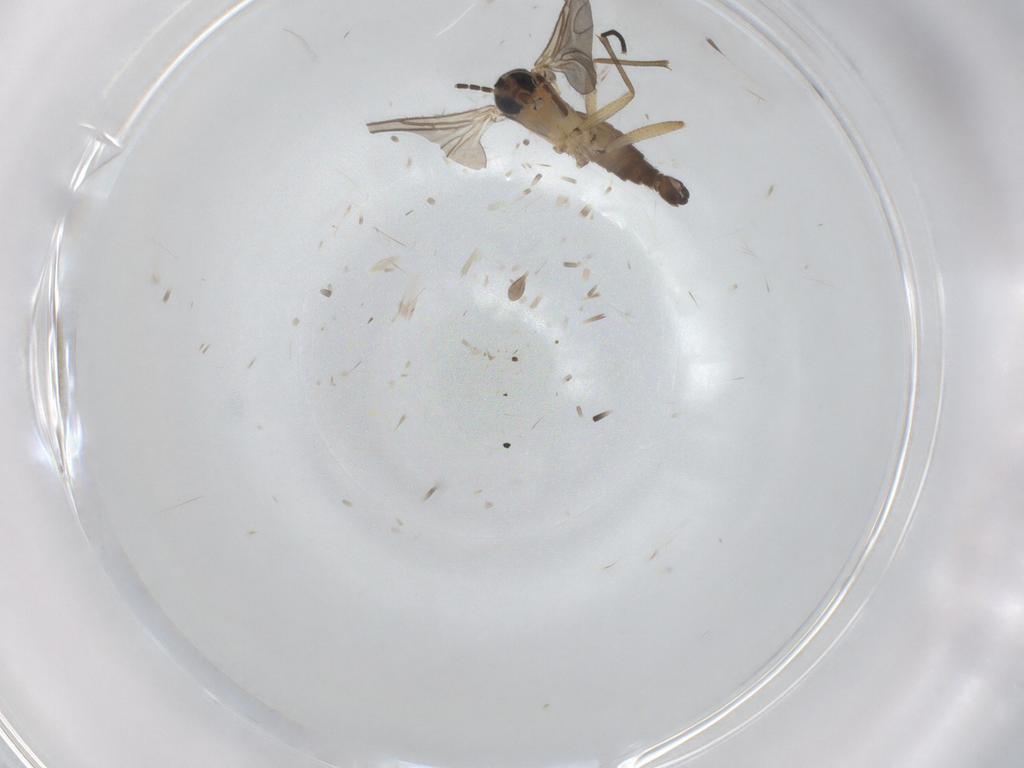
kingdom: Animalia
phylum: Arthropoda
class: Insecta
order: Diptera
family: Sciaridae
